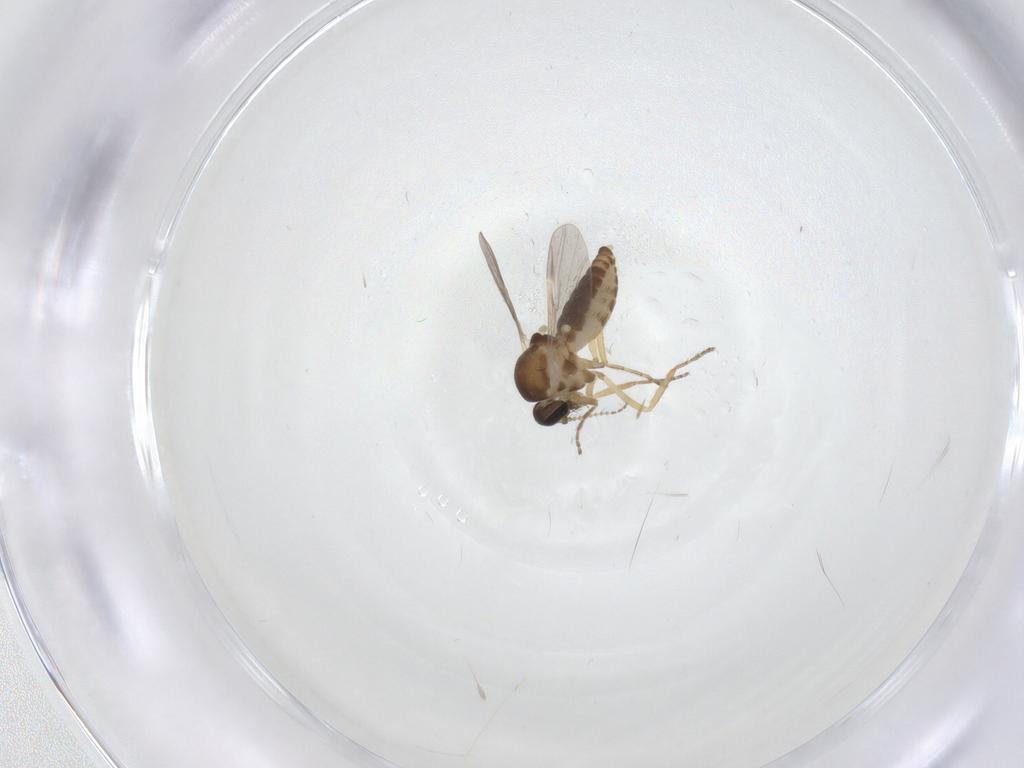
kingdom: Animalia
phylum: Arthropoda
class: Insecta
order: Diptera
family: Ceratopogonidae
